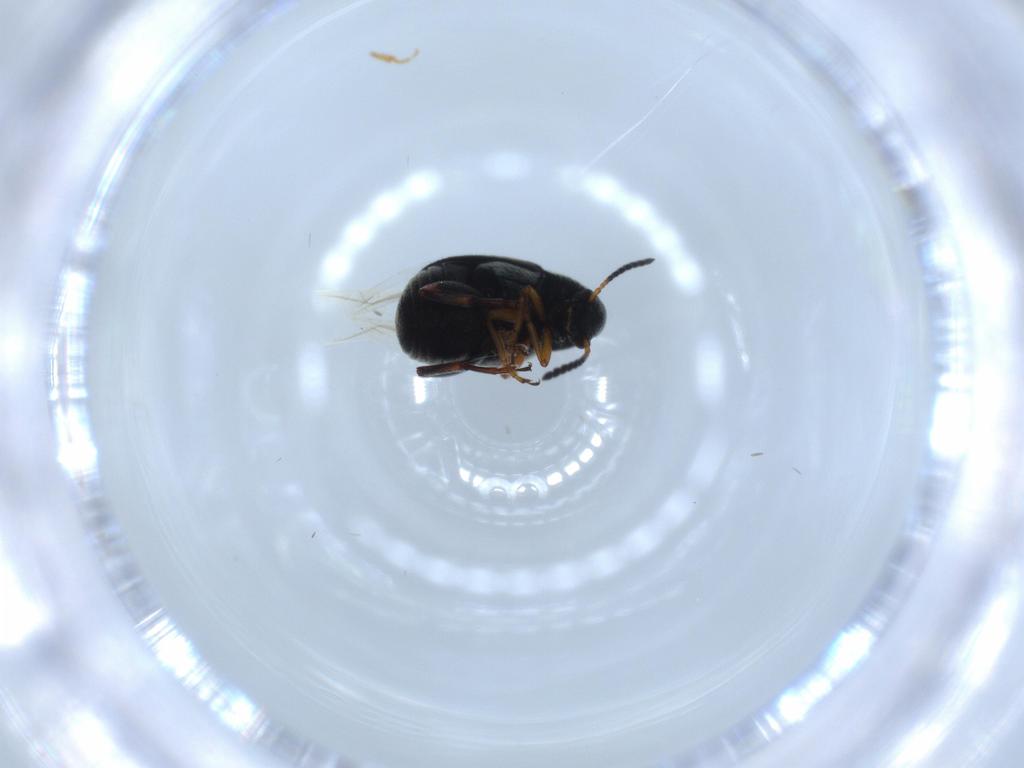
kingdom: Animalia
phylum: Arthropoda
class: Insecta
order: Coleoptera
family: Chrysomelidae
